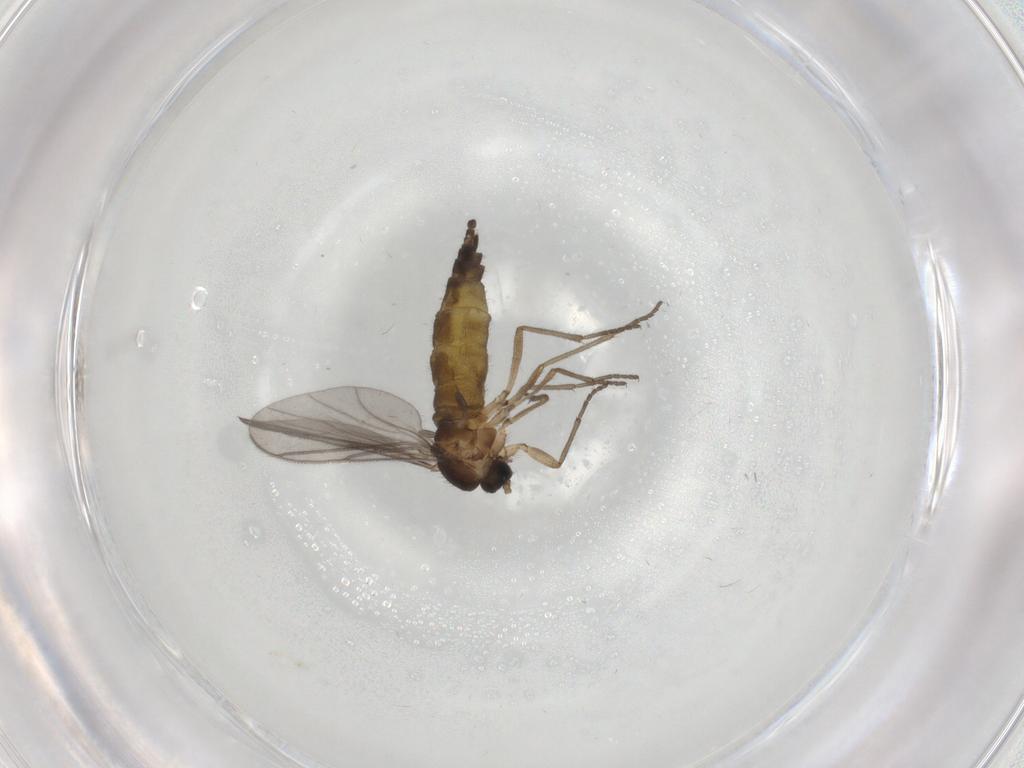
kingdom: Animalia
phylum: Arthropoda
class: Insecta
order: Diptera
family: Sciaridae
